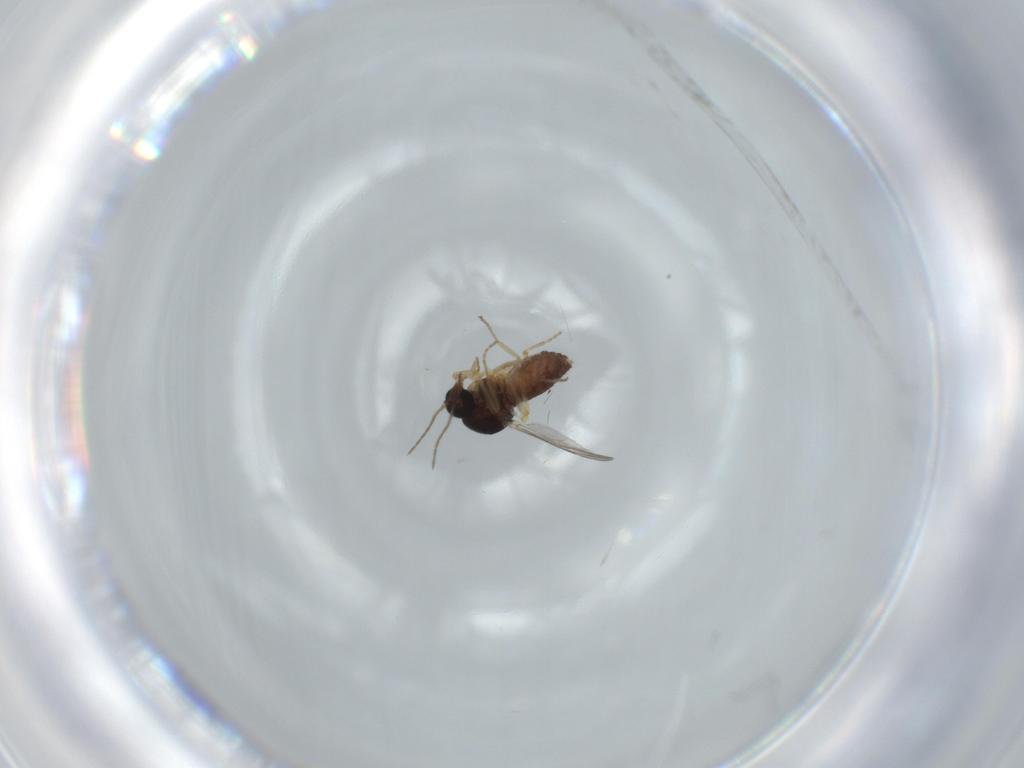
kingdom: Animalia
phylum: Arthropoda
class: Insecta
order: Diptera
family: Ceratopogonidae
